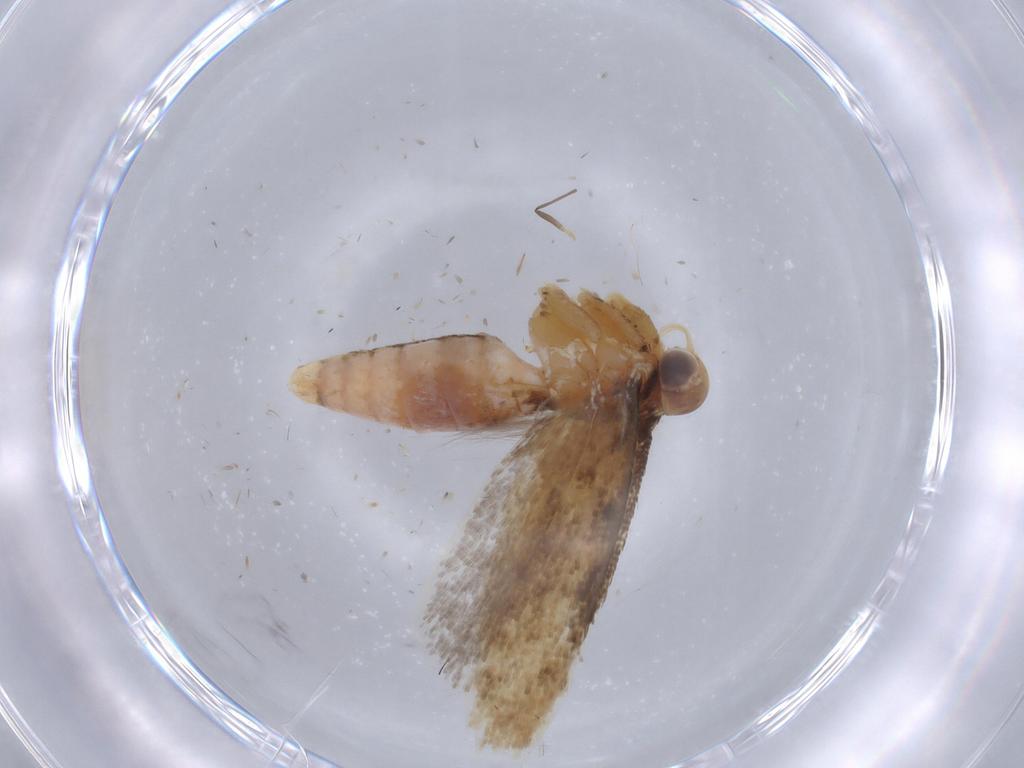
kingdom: Animalia
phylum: Arthropoda
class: Insecta
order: Lepidoptera
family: Gelechiidae
